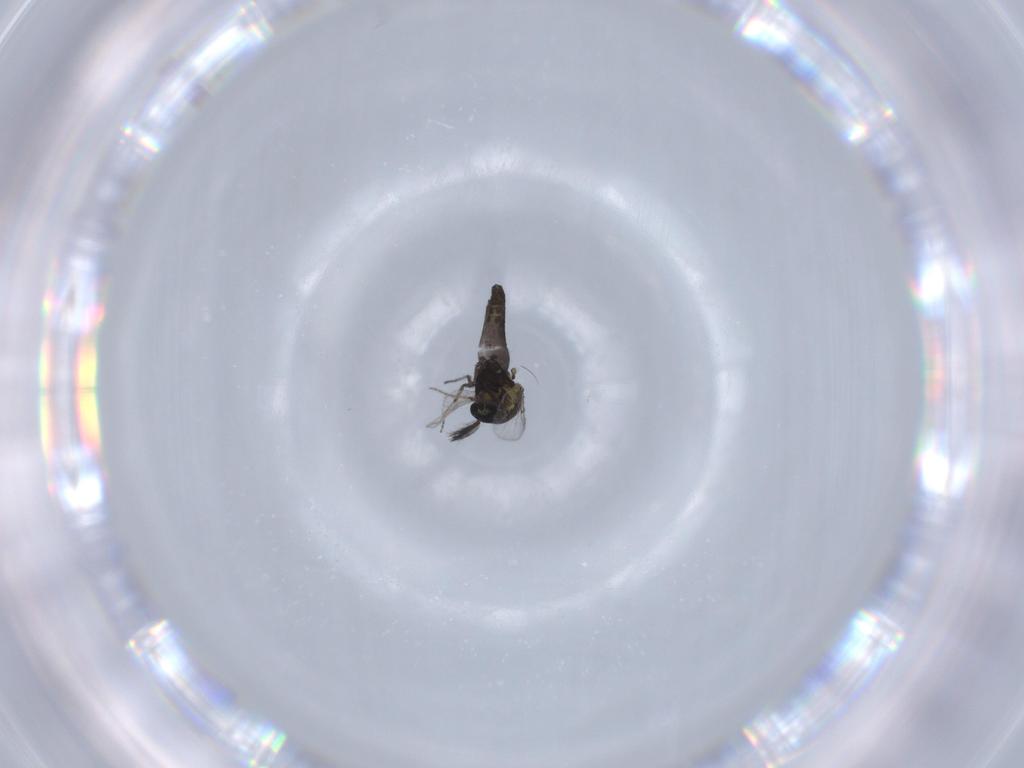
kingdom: Animalia
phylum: Arthropoda
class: Insecta
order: Diptera
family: Ceratopogonidae
